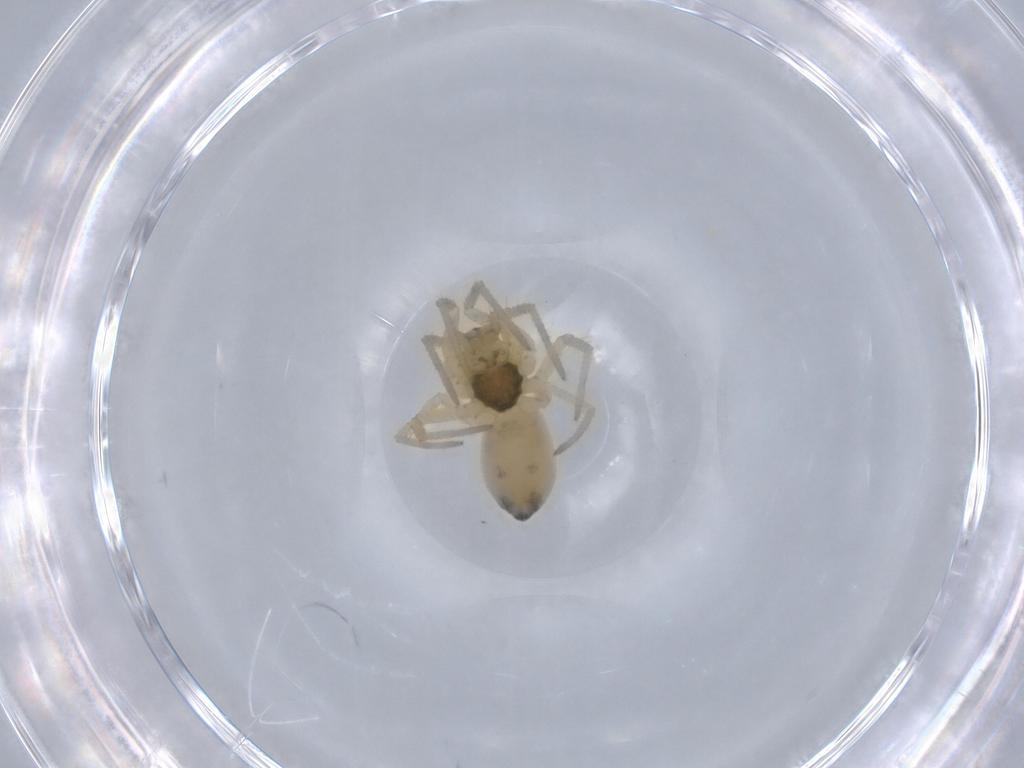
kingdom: Animalia
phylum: Arthropoda
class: Arachnida
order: Araneae
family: Linyphiidae
